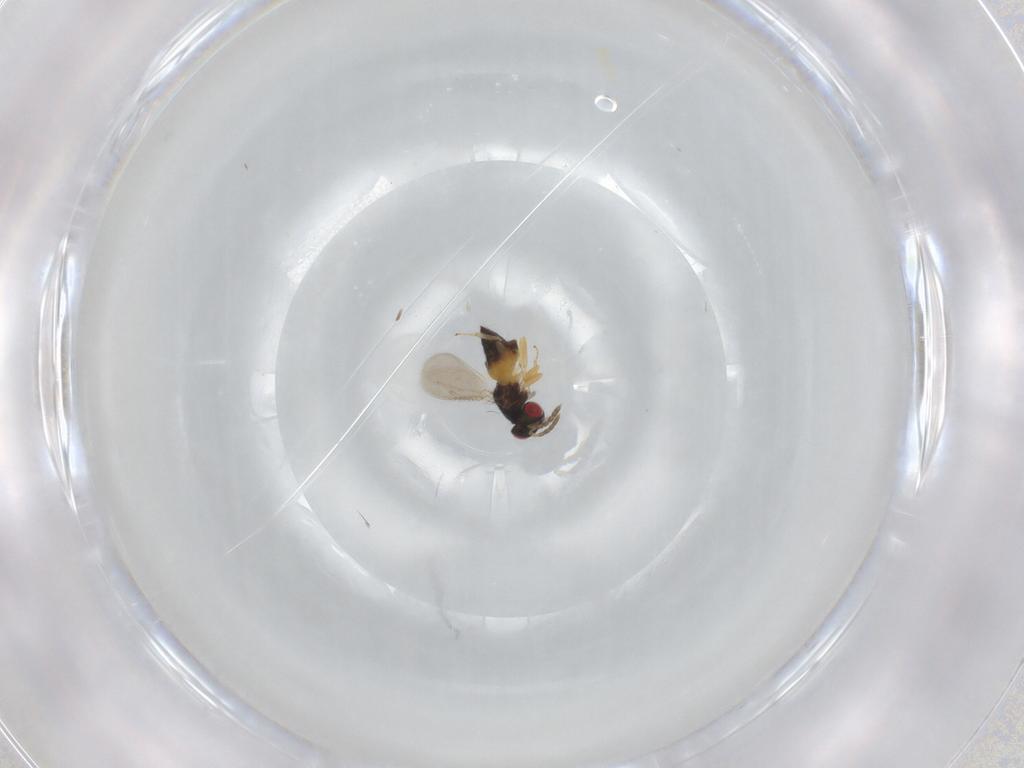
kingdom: Animalia
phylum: Arthropoda
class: Insecta
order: Hymenoptera
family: Eulophidae
